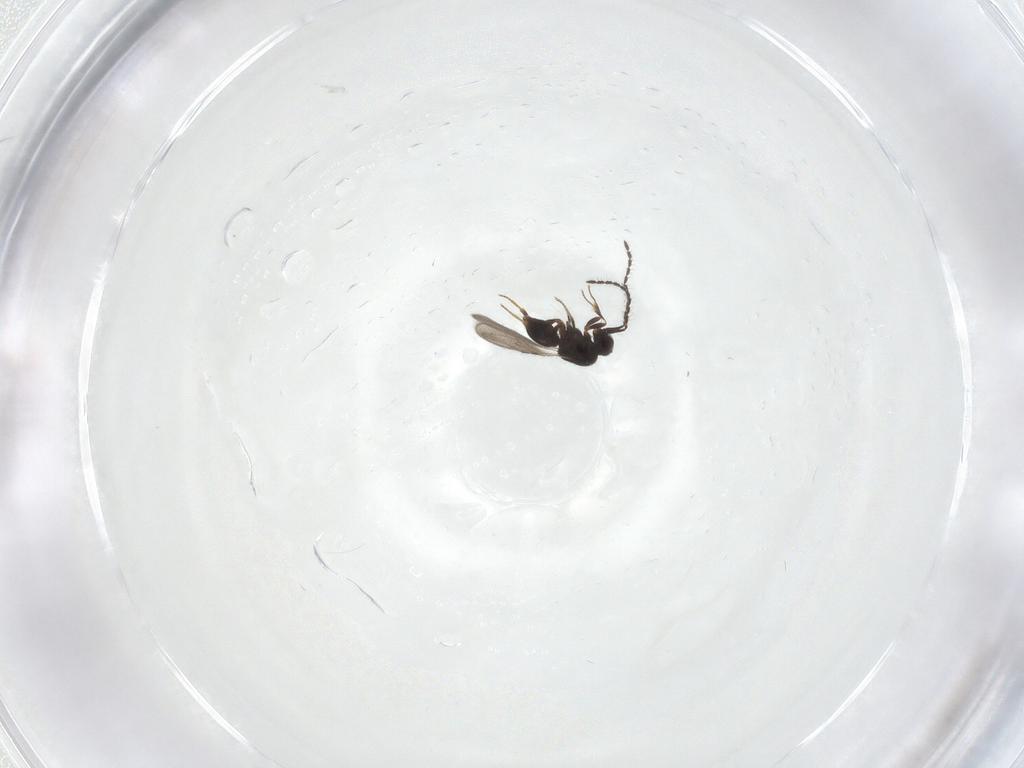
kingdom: Animalia
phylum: Arthropoda
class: Insecta
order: Hymenoptera
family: Diapriidae
